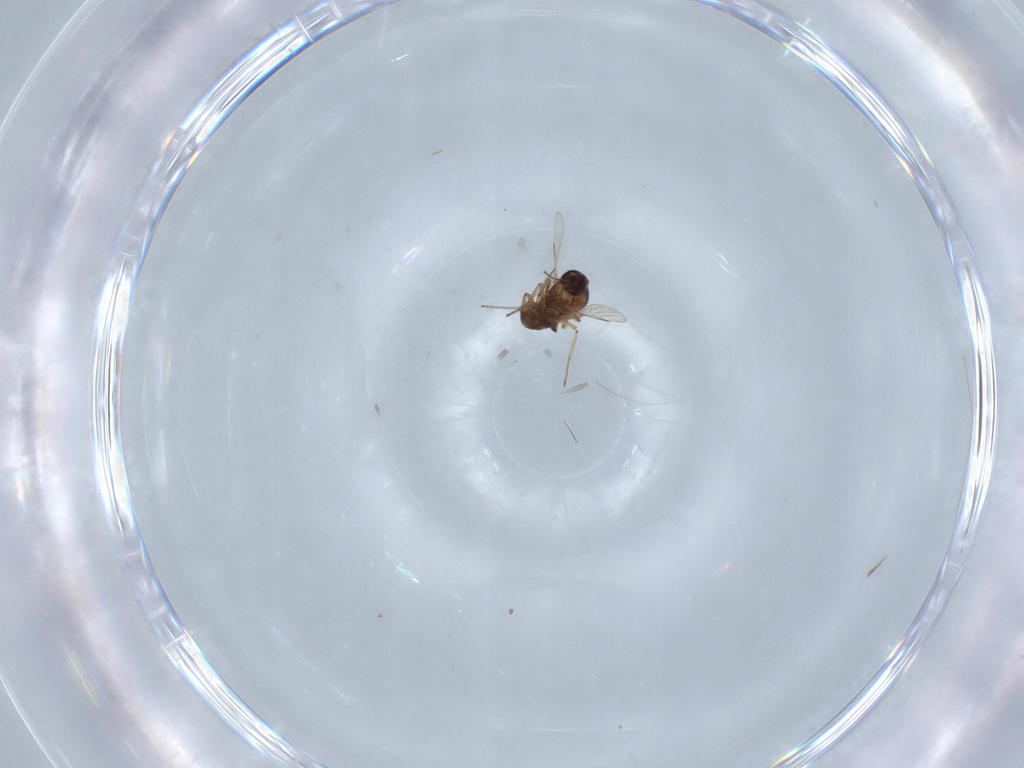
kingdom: Animalia
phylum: Arthropoda
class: Insecta
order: Diptera
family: Ceratopogonidae
